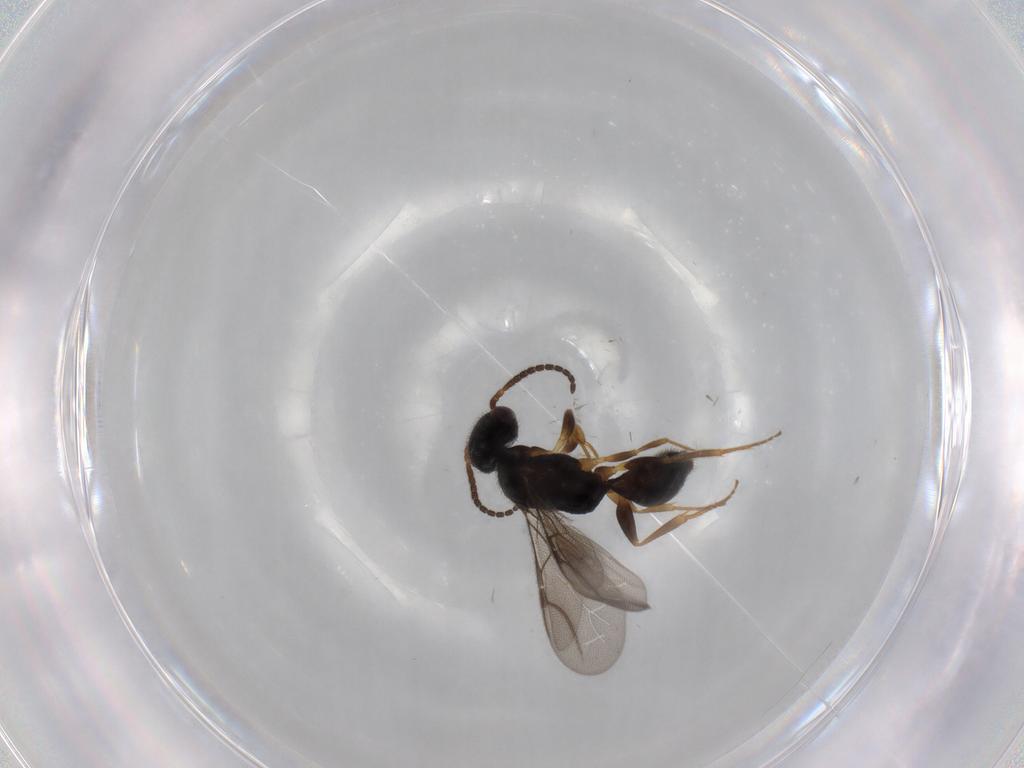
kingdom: Animalia
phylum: Arthropoda
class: Insecta
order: Hymenoptera
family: Bethylidae
